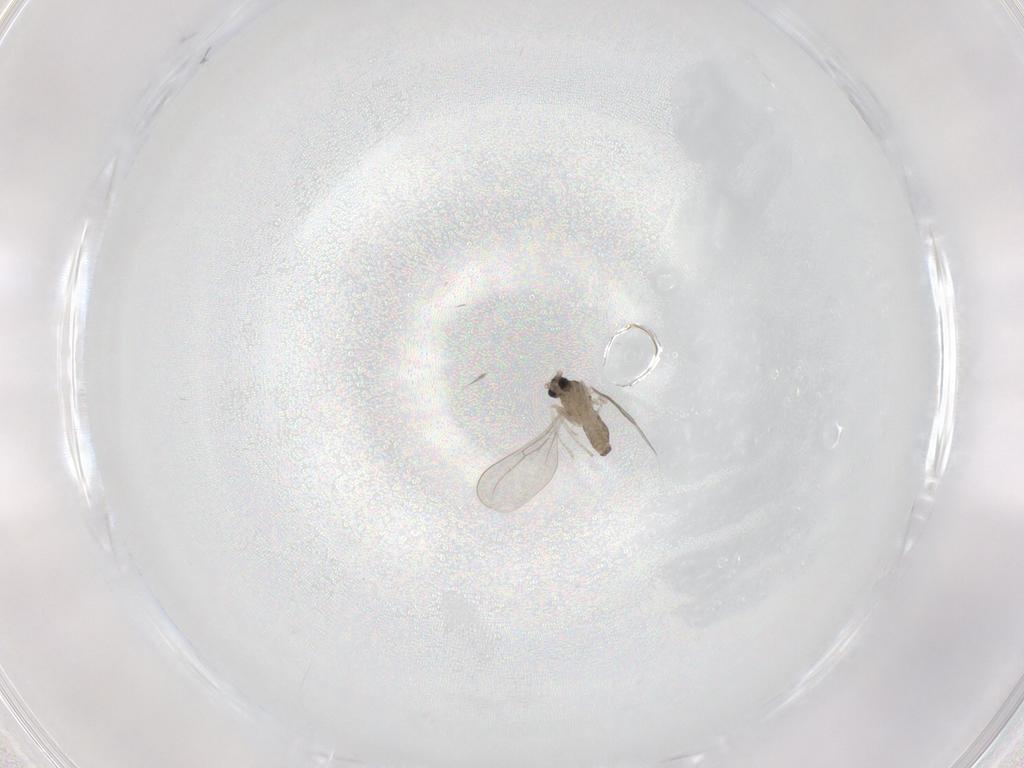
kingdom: Animalia
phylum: Arthropoda
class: Insecta
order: Diptera
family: Cecidomyiidae
